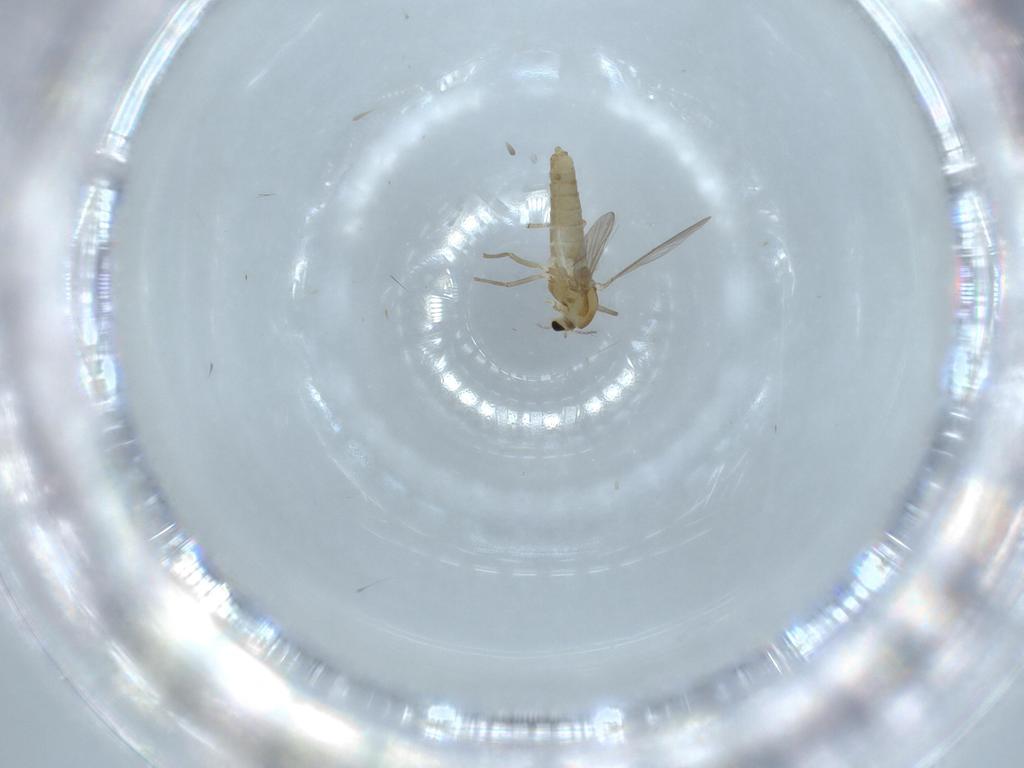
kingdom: Animalia
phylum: Arthropoda
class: Insecta
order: Diptera
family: Chironomidae
